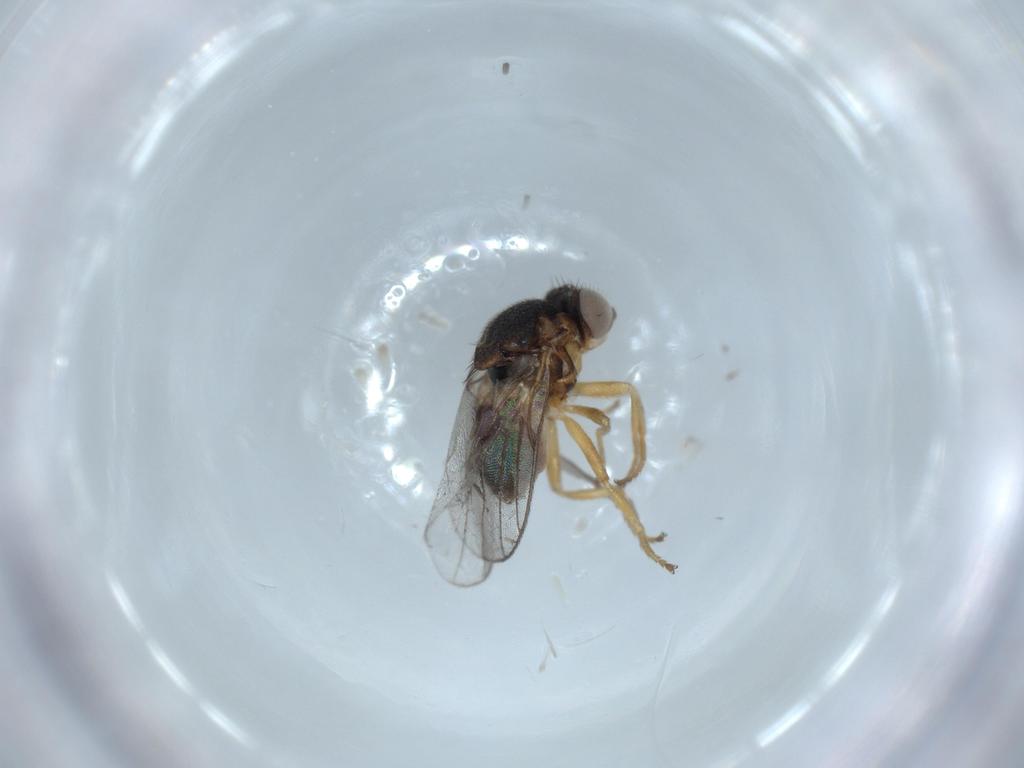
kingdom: Animalia
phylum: Arthropoda
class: Insecta
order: Diptera
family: Chloropidae
